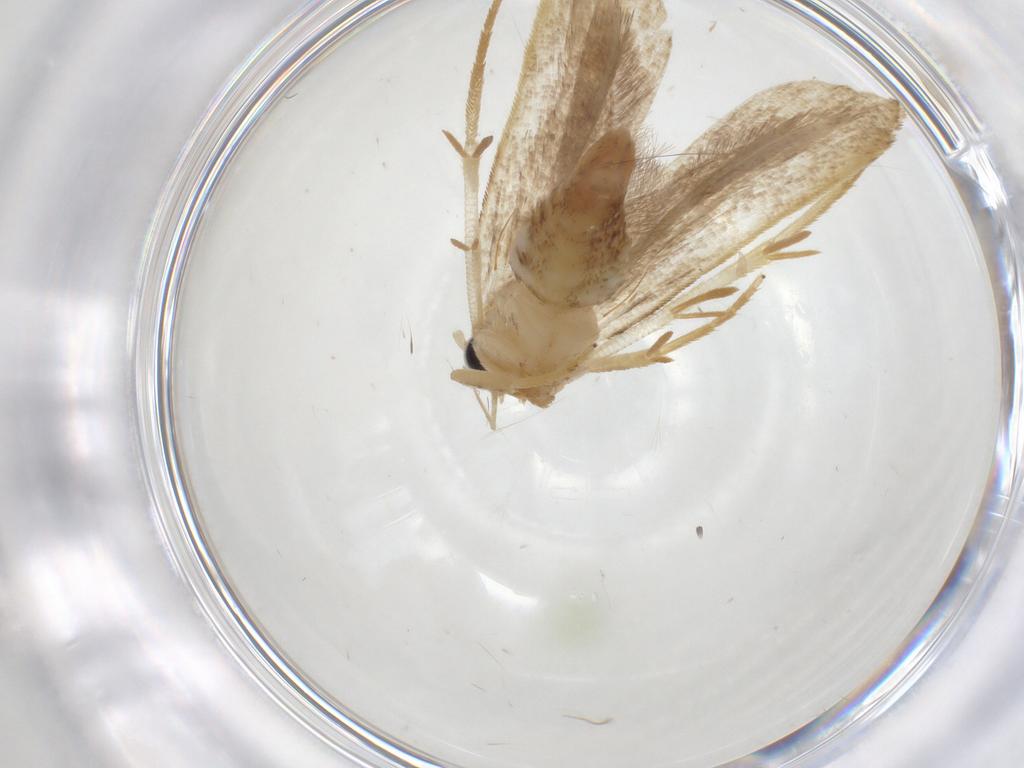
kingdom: Animalia
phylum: Arthropoda
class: Insecta
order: Lepidoptera
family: Gelechiidae
